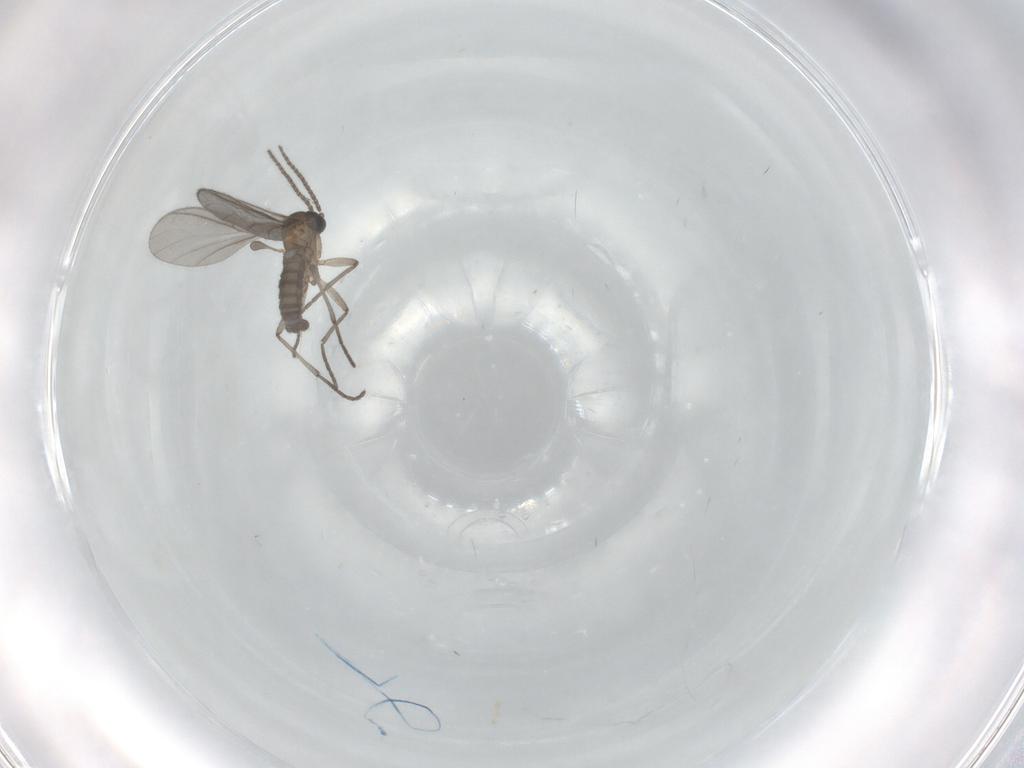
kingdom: Animalia
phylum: Arthropoda
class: Insecta
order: Diptera
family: Sciaridae
